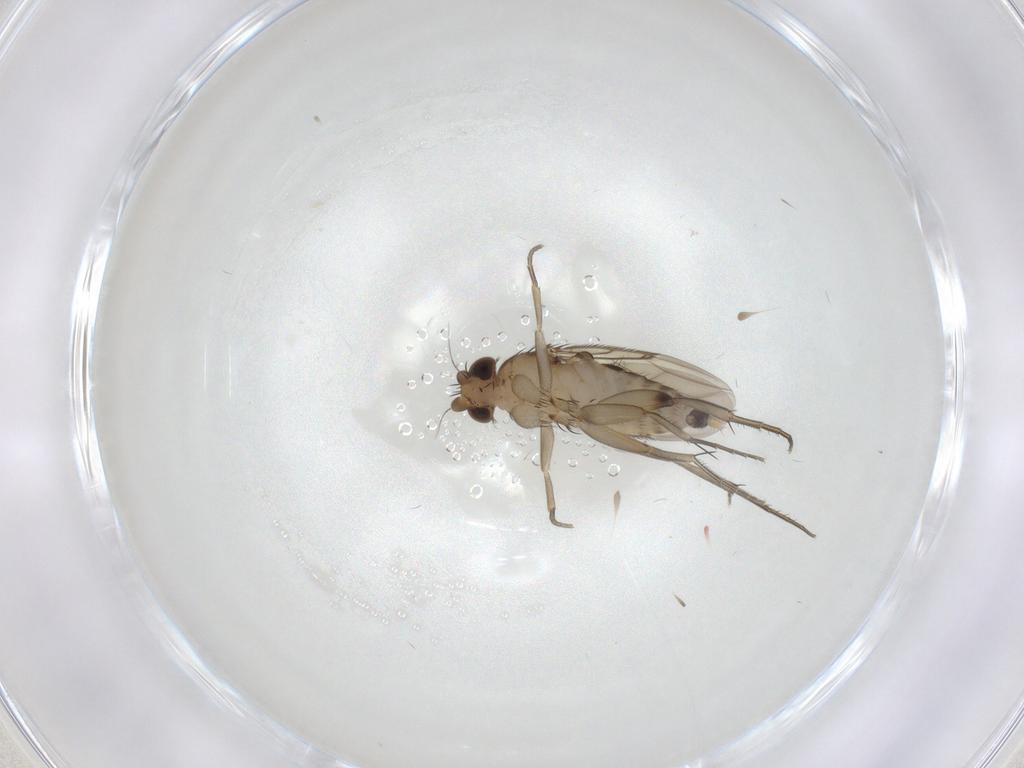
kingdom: Animalia
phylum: Arthropoda
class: Insecta
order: Diptera
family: Phoridae
